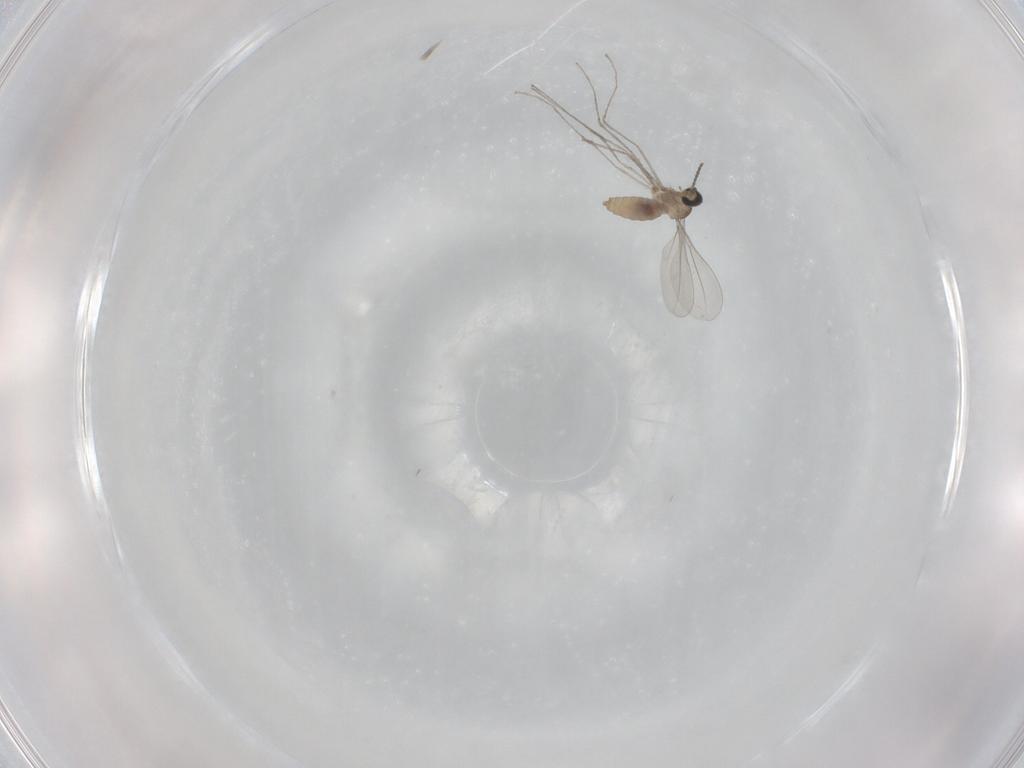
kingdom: Animalia
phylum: Arthropoda
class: Insecta
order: Diptera
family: Cecidomyiidae
